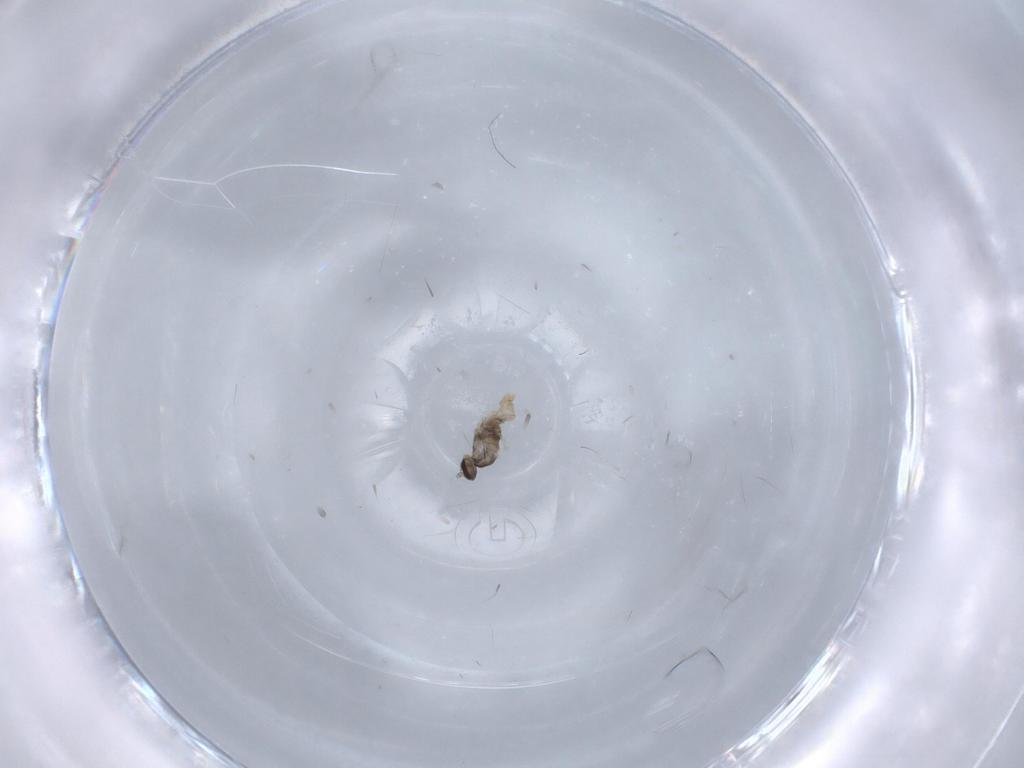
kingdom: Animalia
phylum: Arthropoda
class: Insecta
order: Diptera
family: Cecidomyiidae
